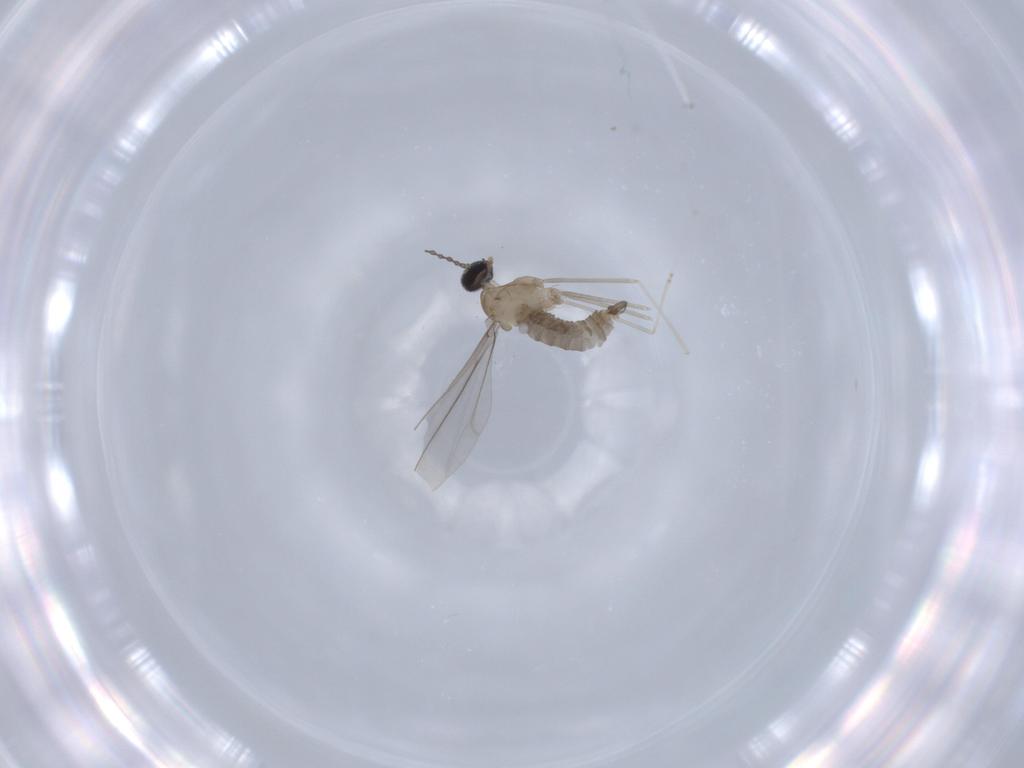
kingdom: Animalia
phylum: Arthropoda
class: Insecta
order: Diptera
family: Cecidomyiidae
